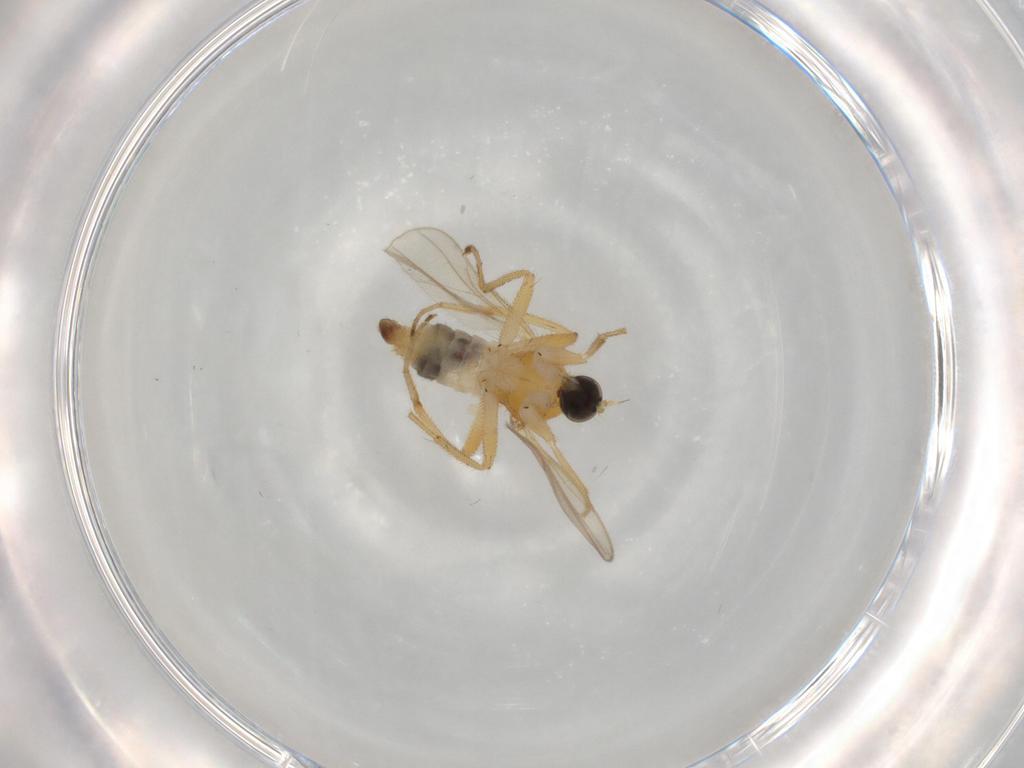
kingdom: Animalia
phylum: Arthropoda
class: Insecta
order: Diptera
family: Hybotidae
